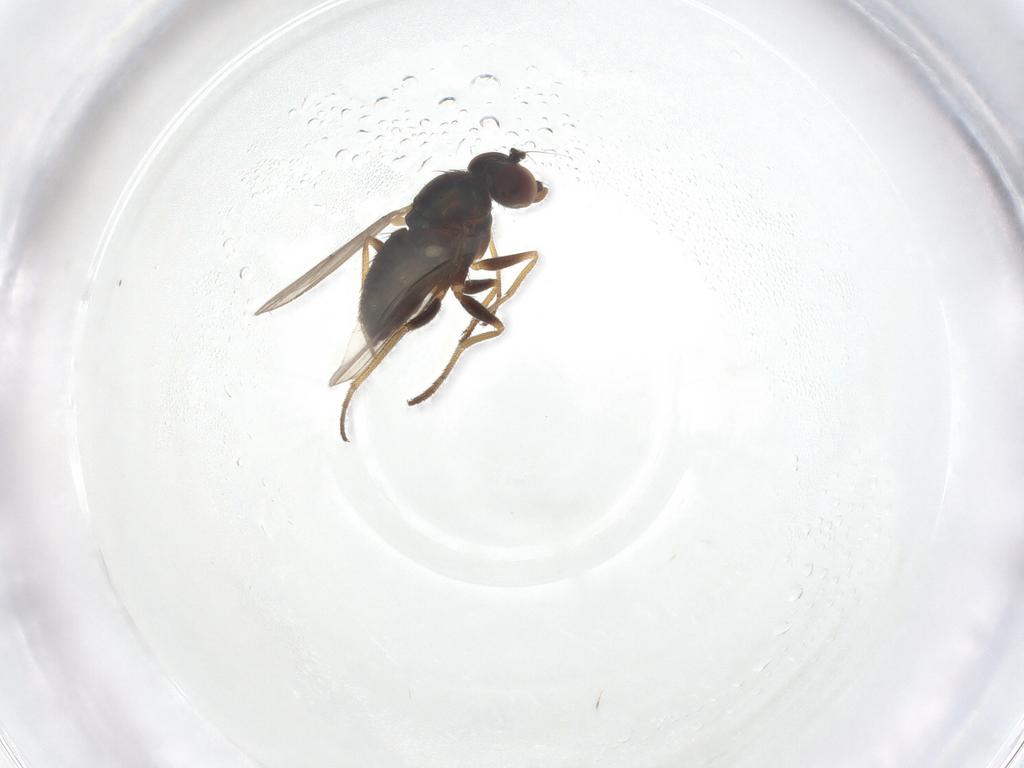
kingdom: Animalia
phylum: Arthropoda
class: Insecta
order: Diptera
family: Dolichopodidae
